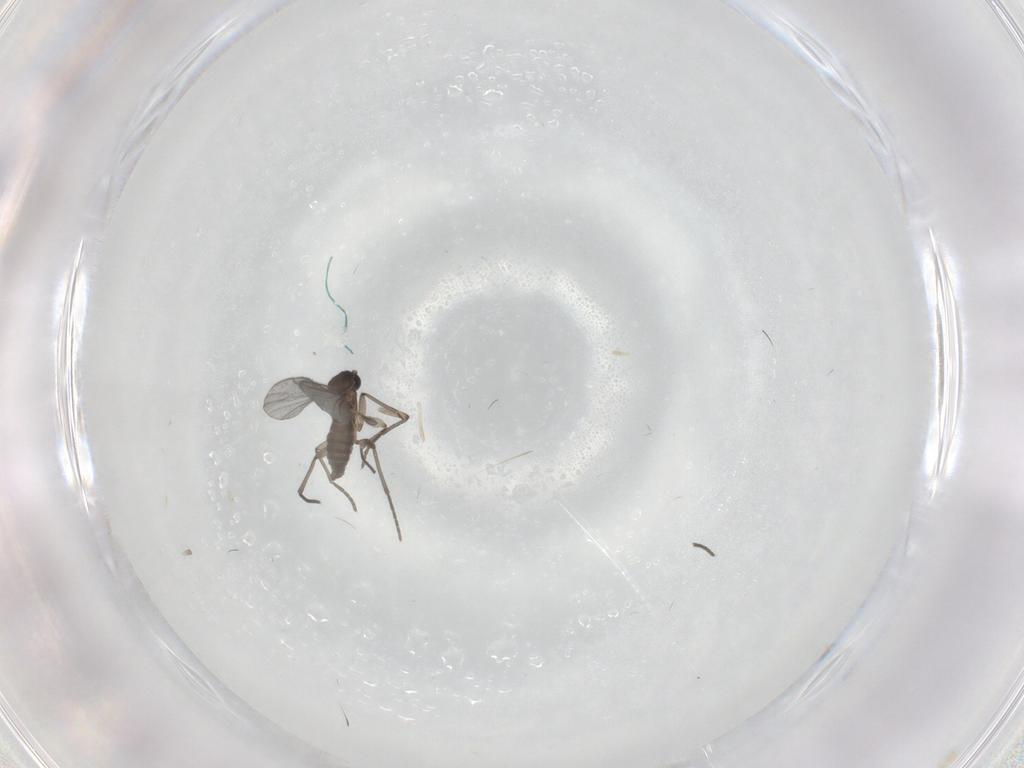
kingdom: Animalia
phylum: Arthropoda
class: Insecta
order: Diptera
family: Sciaridae
